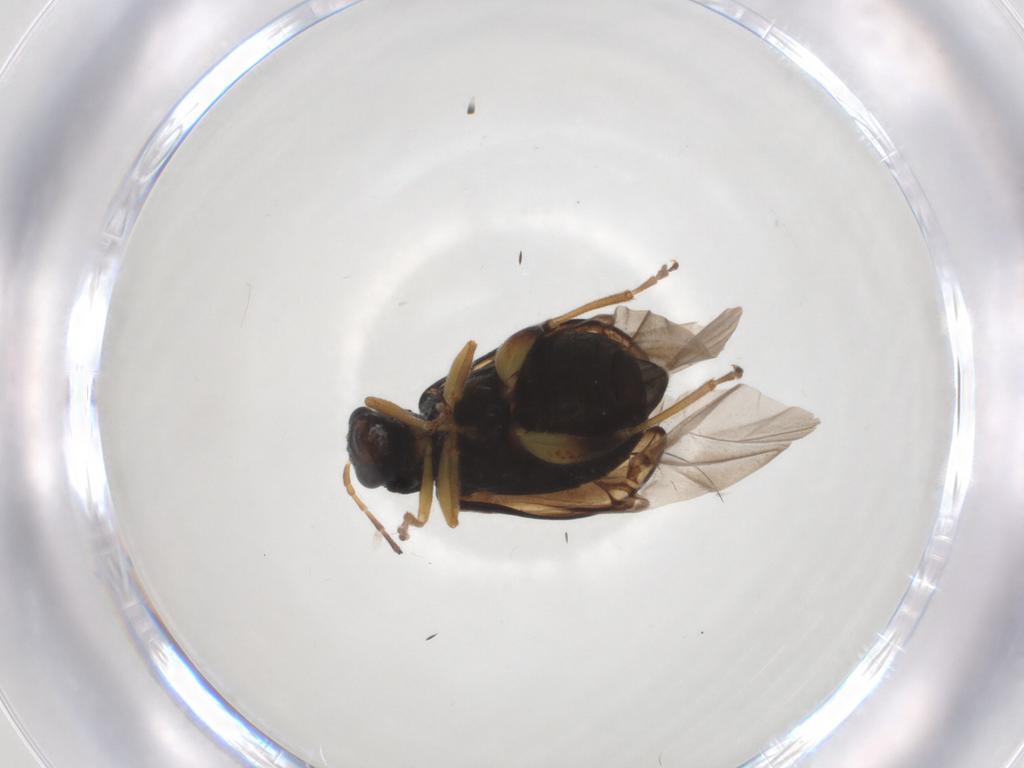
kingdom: Animalia
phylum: Arthropoda
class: Insecta
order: Coleoptera
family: Chrysomelidae
